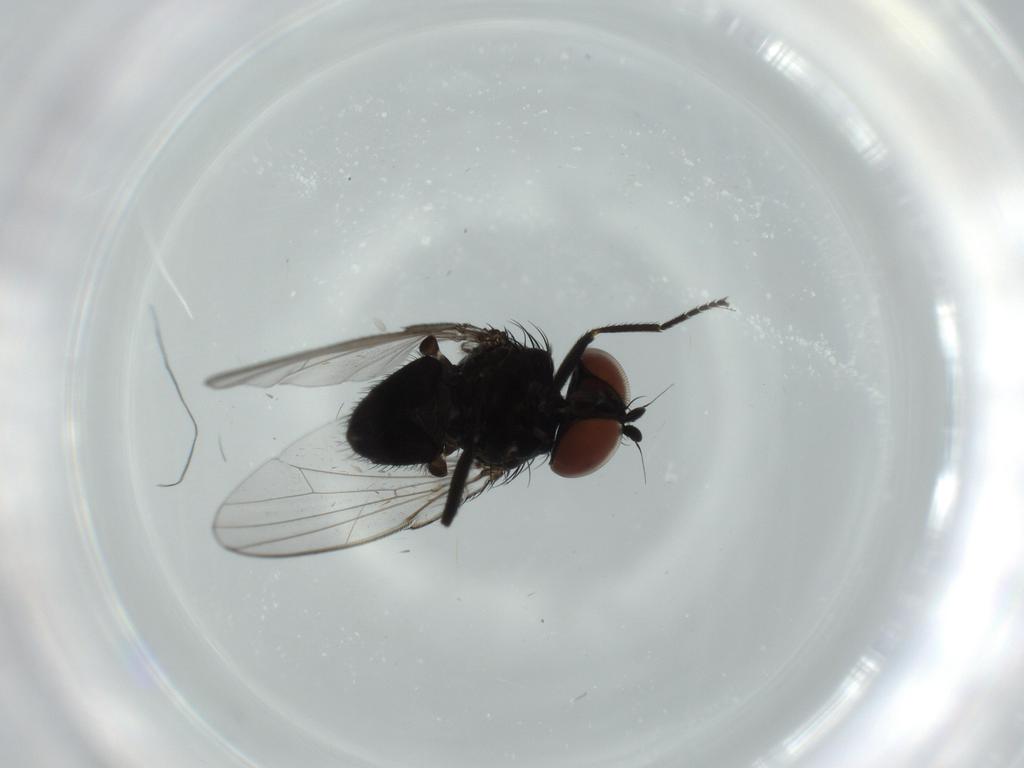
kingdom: Animalia
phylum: Arthropoda
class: Insecta
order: Diptera
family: Milichiidae
